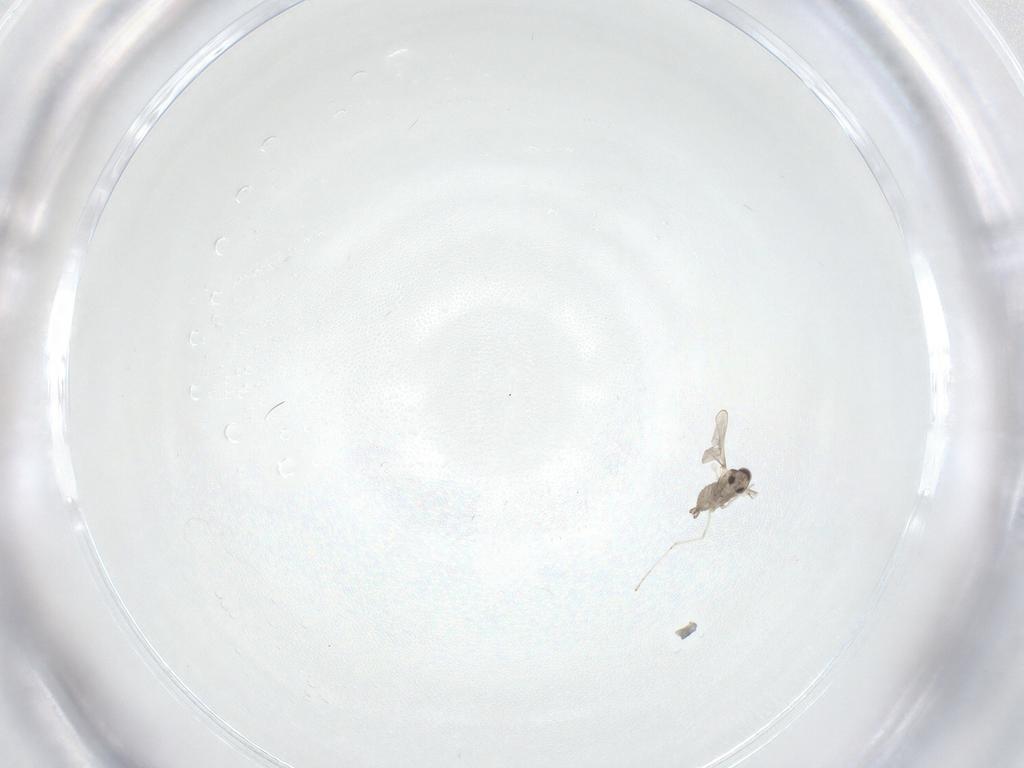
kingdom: Animalia
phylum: Arthropoda
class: Insecta
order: Diptera
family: Cecidomyiidae
